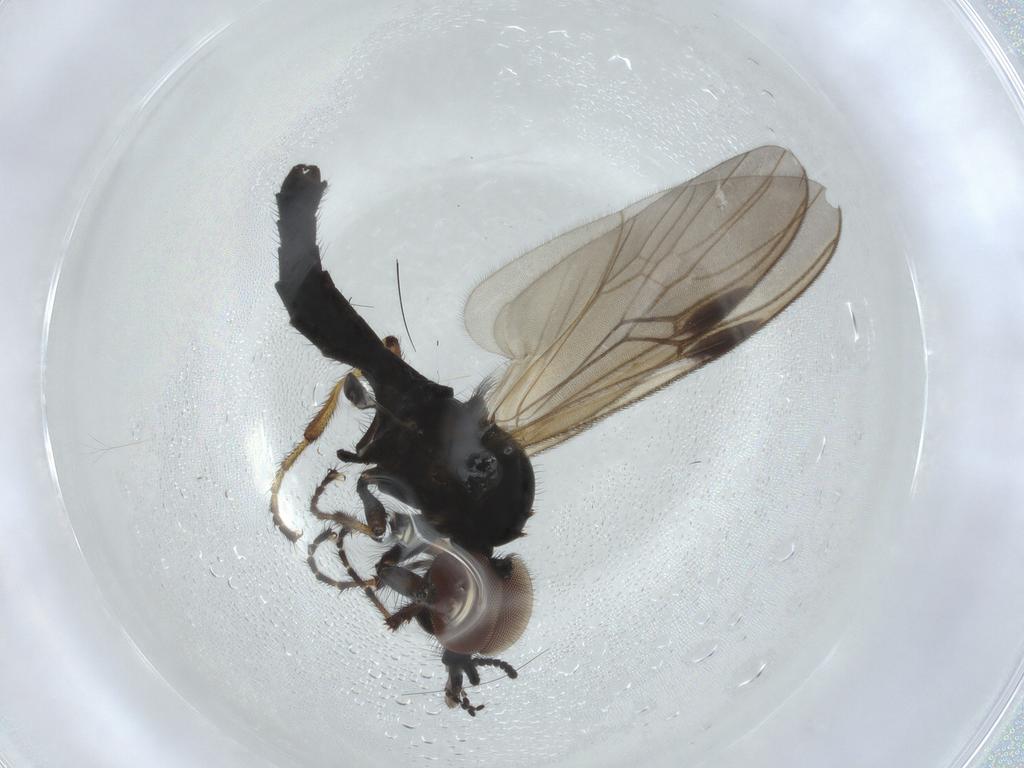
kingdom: Animalia
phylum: Arthropoda
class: Insecta
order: Diptera
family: Bibionidae
